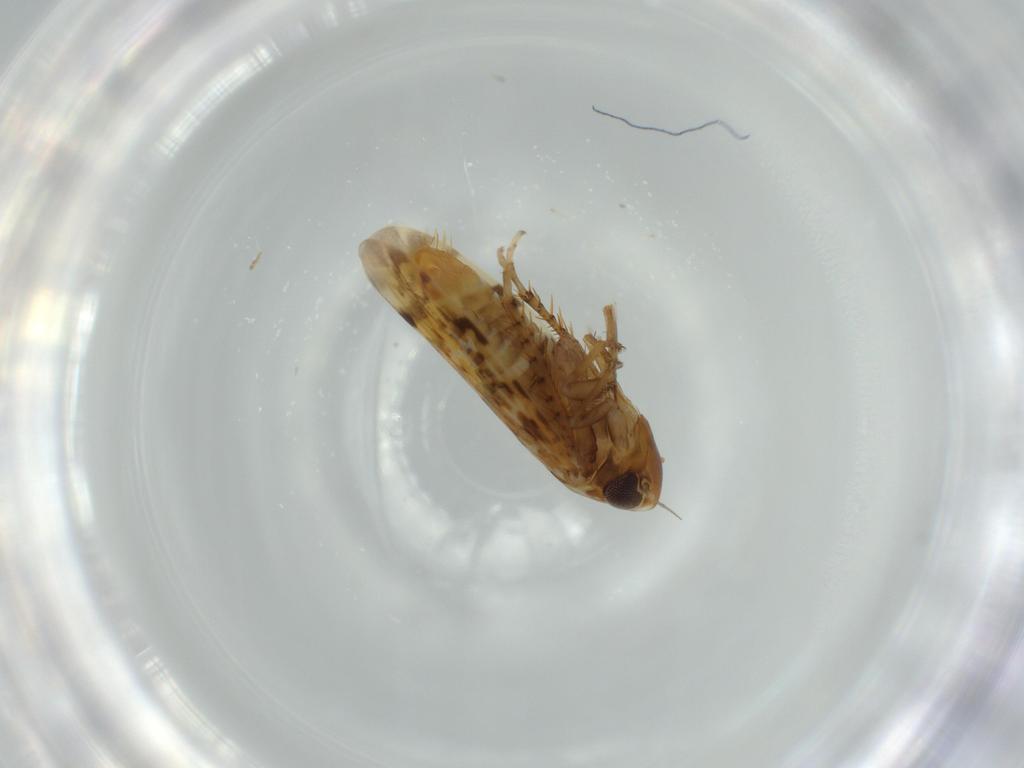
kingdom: Animalia
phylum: Arthropoda
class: Insecta
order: Hemiptera
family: Cicadellidae
